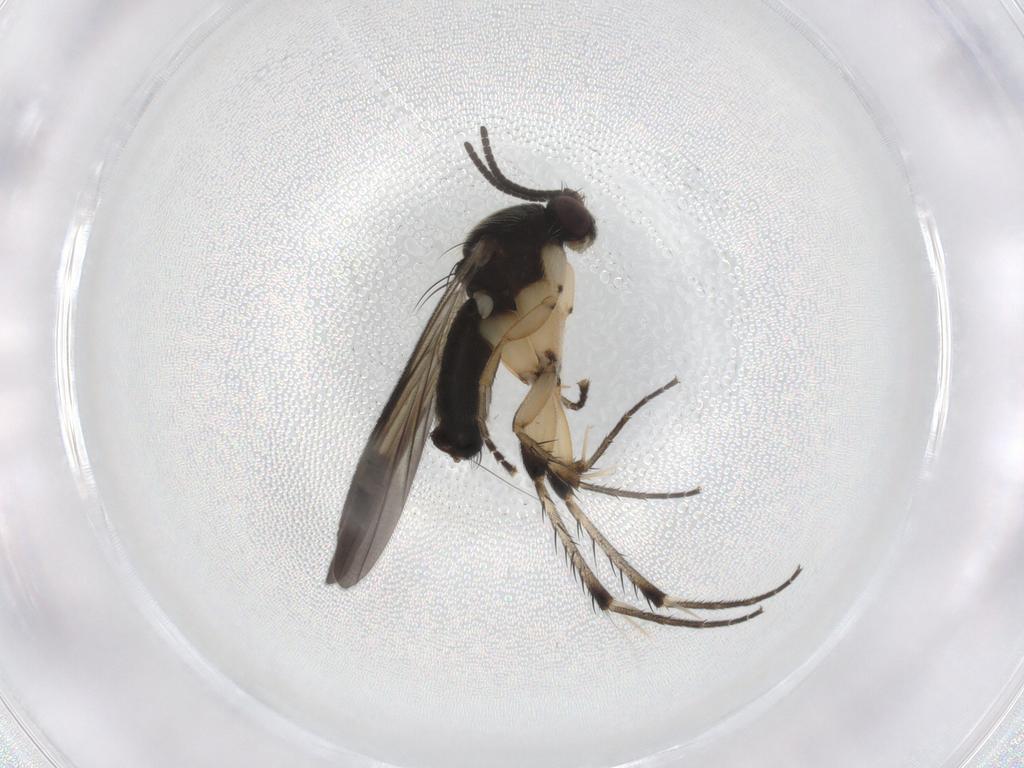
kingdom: Animalia
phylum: Arthropoda
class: Insecta
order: Diptera
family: Mycetophilidae
